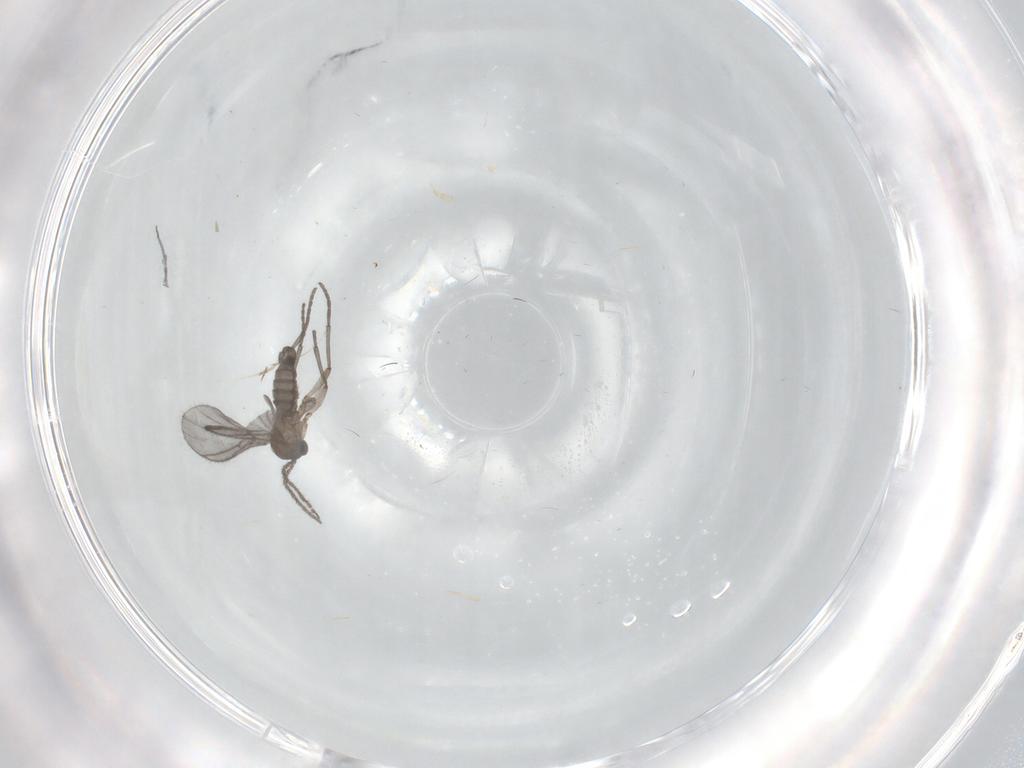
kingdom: Animalia
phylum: Arthropoda
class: Insecta
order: Diptera
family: Sciaridae
